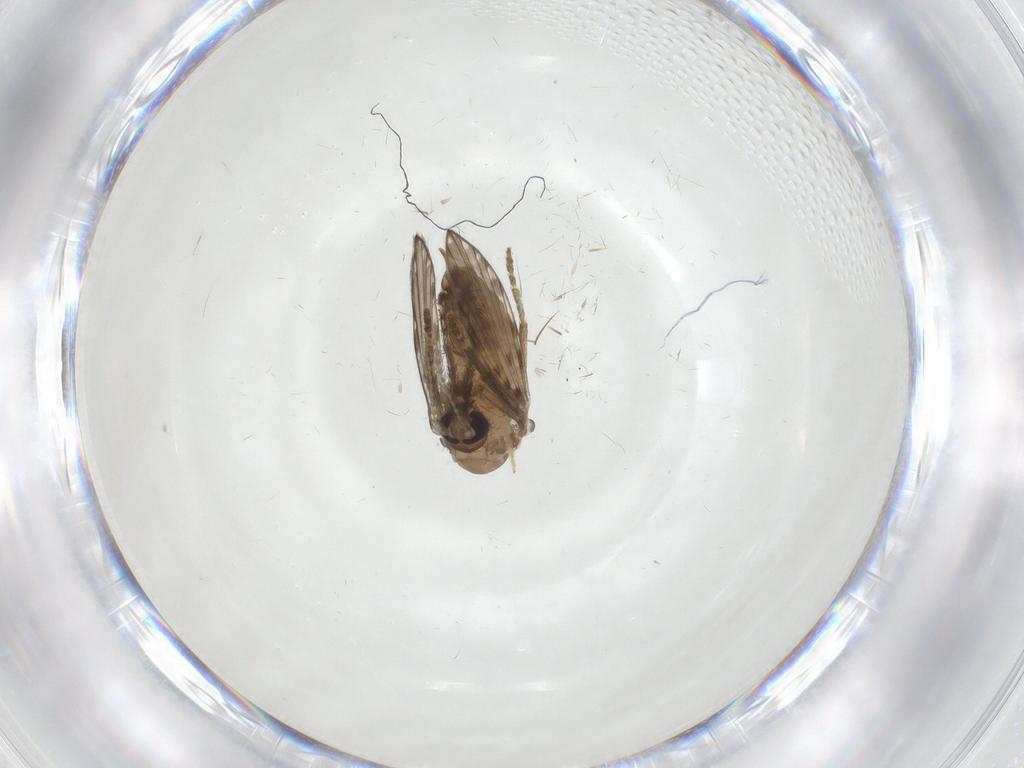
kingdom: Animalia
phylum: Arthropoda
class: Insecta
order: Diptera
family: Psychodidae
